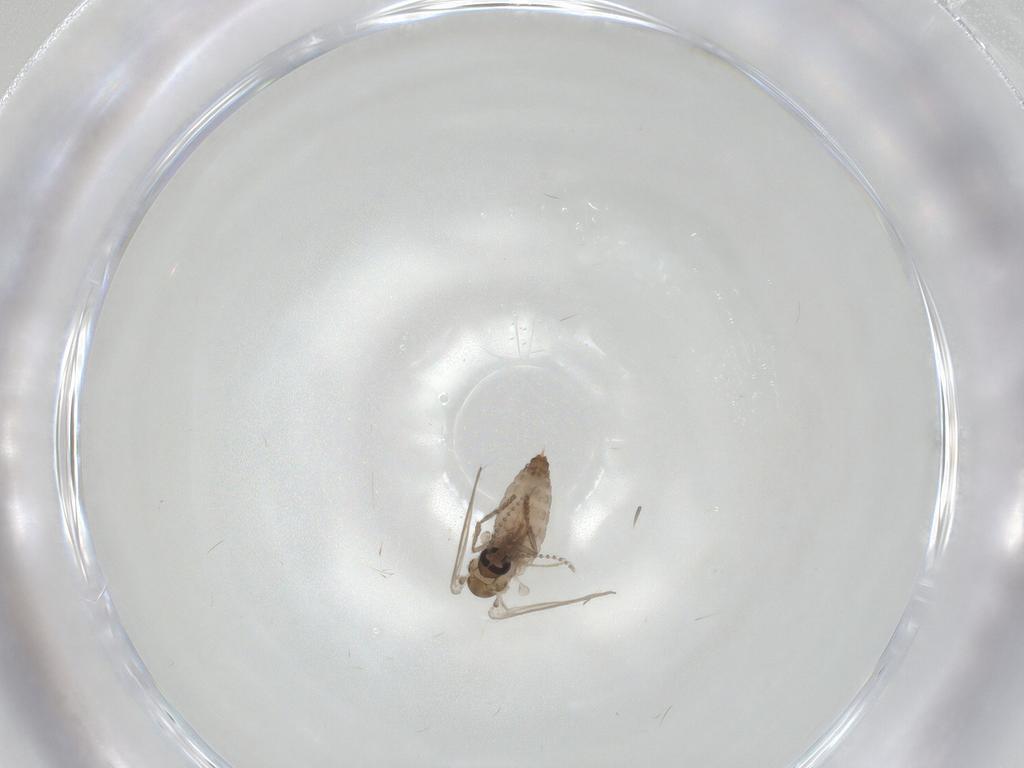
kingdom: Animalia
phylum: Arthropoda
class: Insecta
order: Diptera
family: Psychodidae
